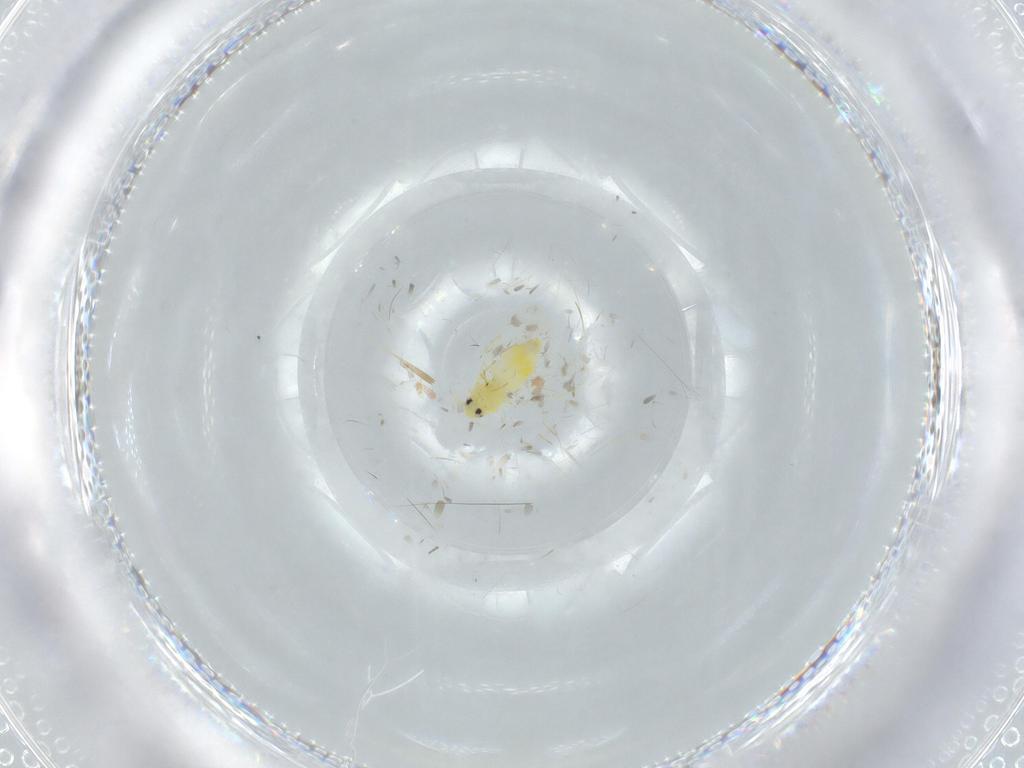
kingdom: Animalia
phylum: Arthropoda
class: Insecta
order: Hemiptera
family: Aleyrodidae
